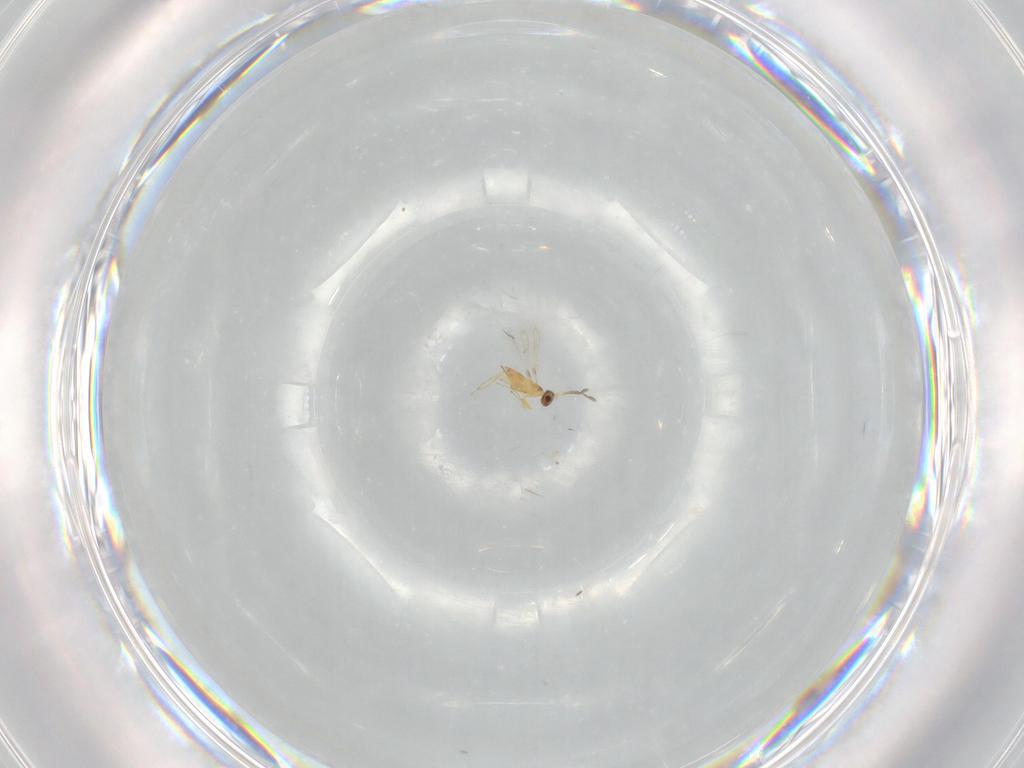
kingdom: Animalia
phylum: Arthropoda
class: Insecta
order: Hymenoptera
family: Mymaridae
